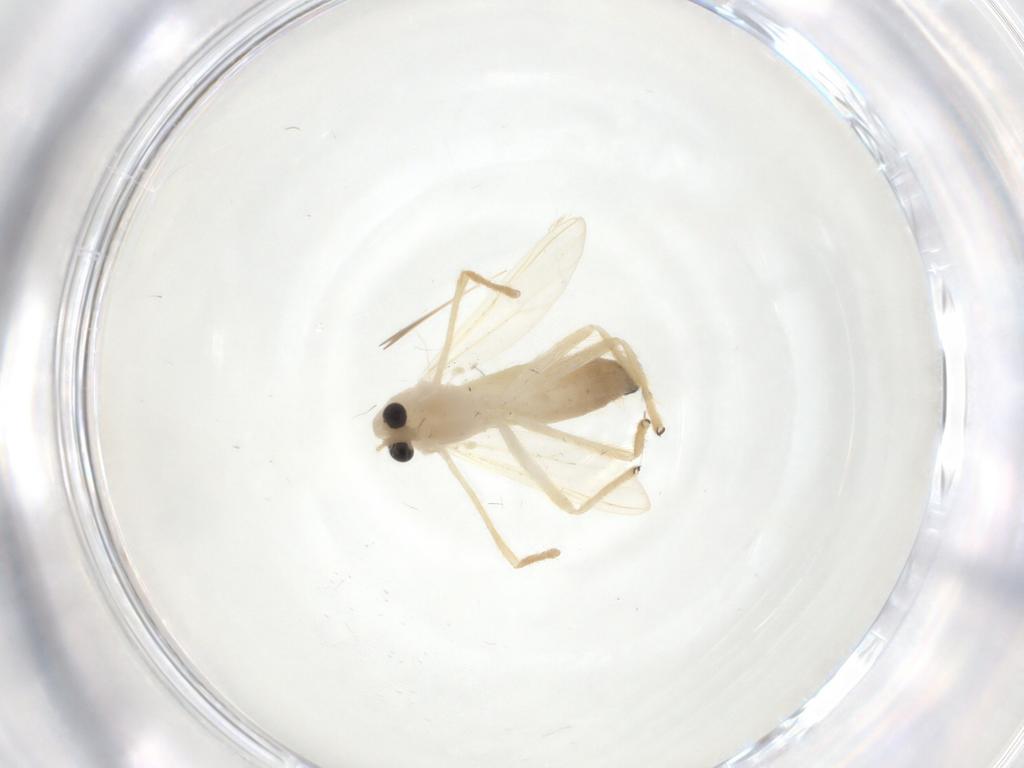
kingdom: Animalia
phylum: Arthropoda
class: Insecta
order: Diptera
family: Chironomidae
